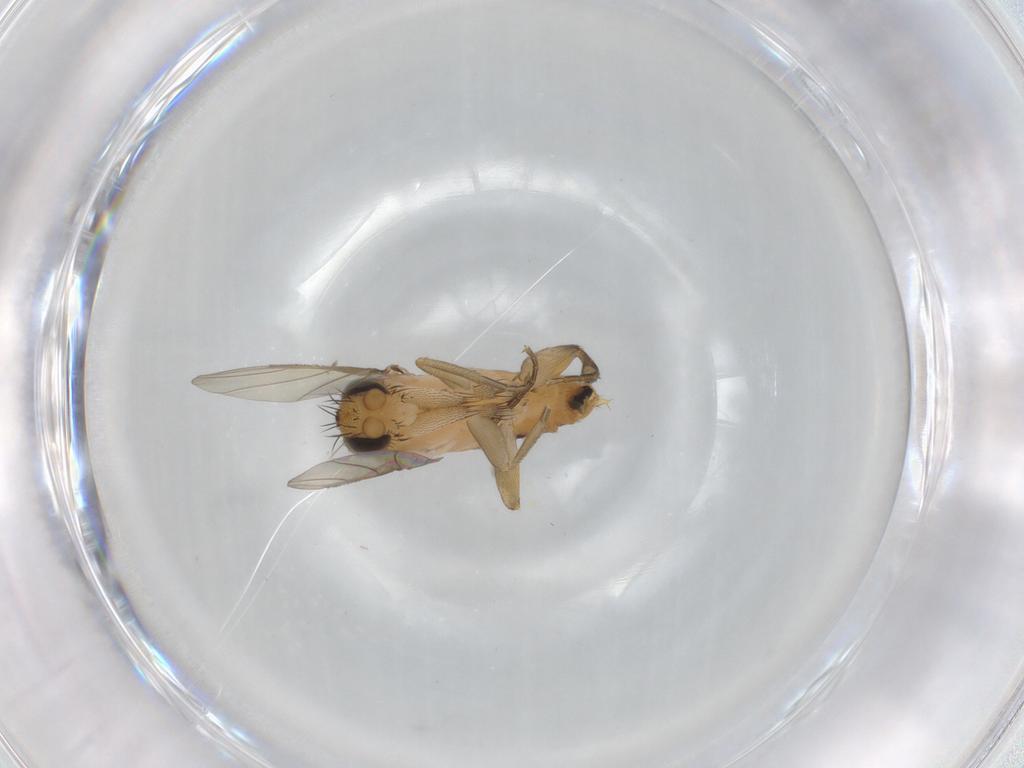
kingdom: Animalia
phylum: Arthropoda
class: Insecta
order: Diptera
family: Phoridae
